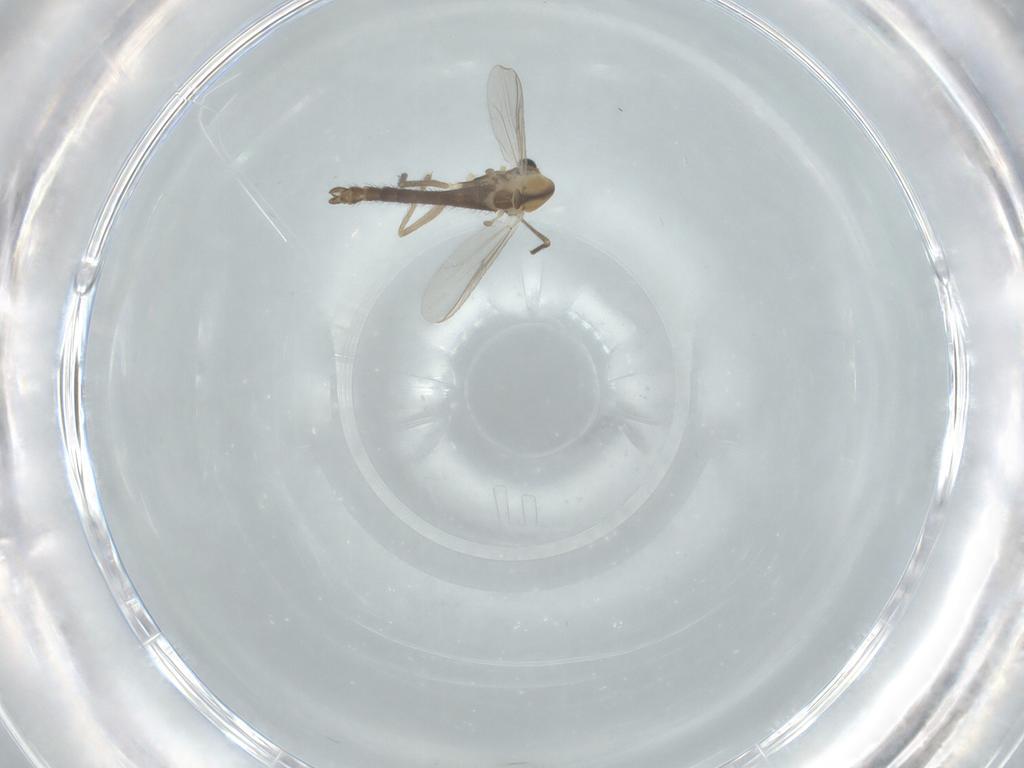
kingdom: Animalia
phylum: Arthropoda
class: Insecta
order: Diptera
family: Chironomidae
